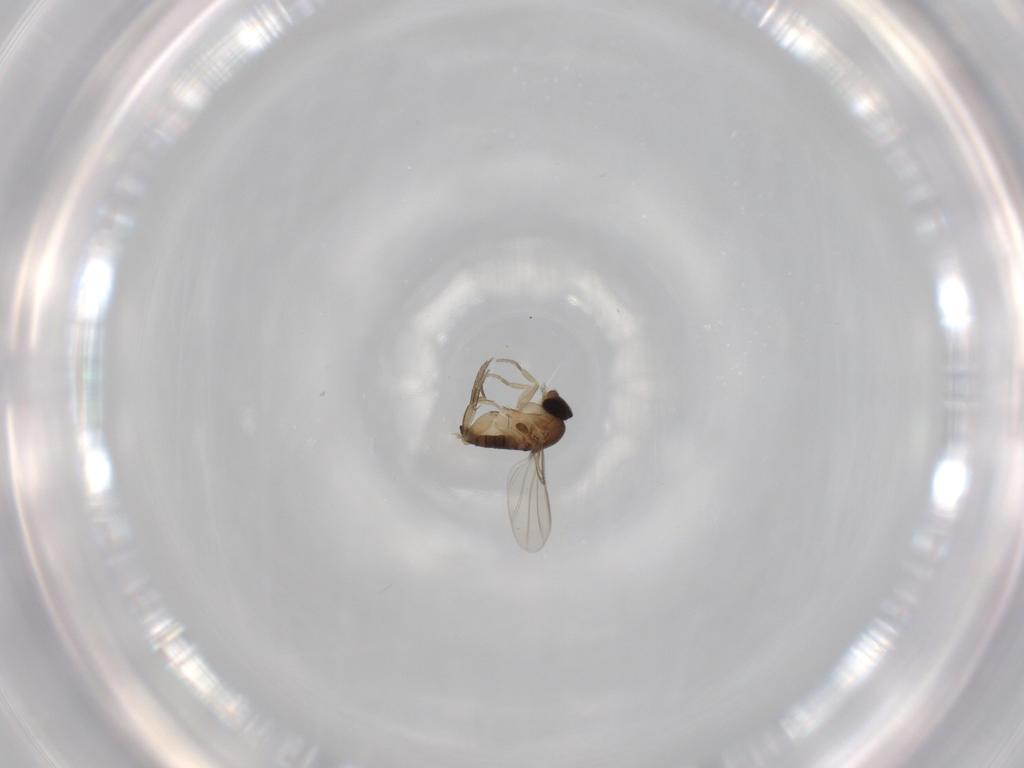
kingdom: Animalia
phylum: Arthropoda
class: Insecta
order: Diptera
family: Phoridae
